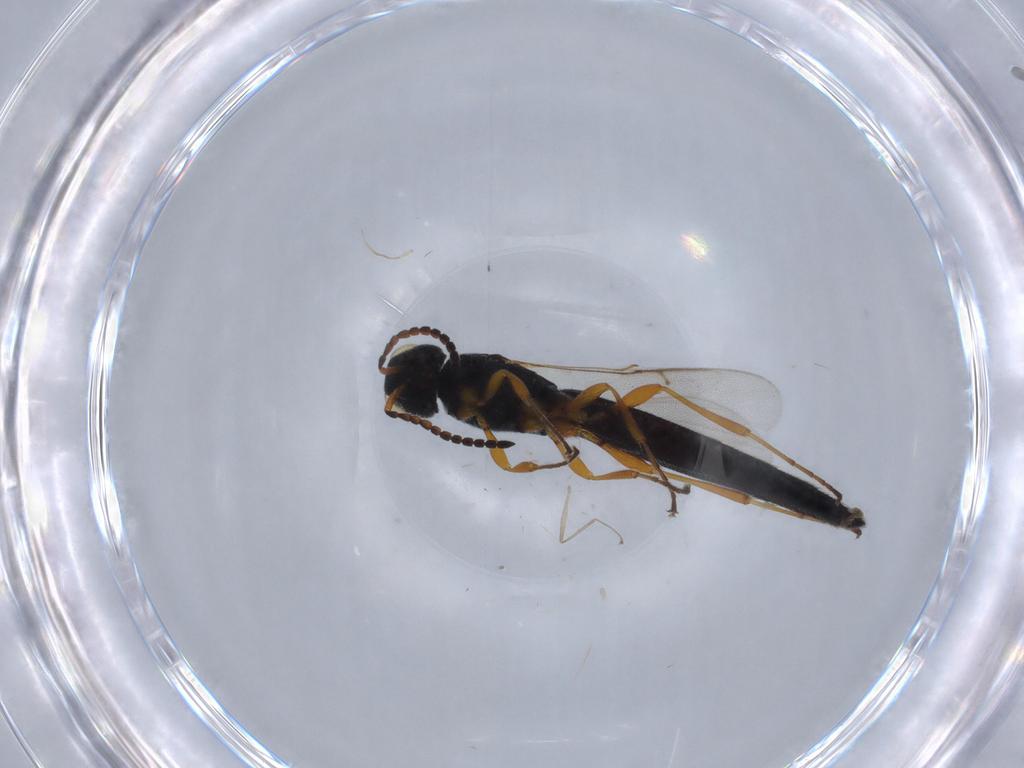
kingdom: Animalia
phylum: Arthropoda
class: Insecta
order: Hymenoptera
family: Scelionidae
